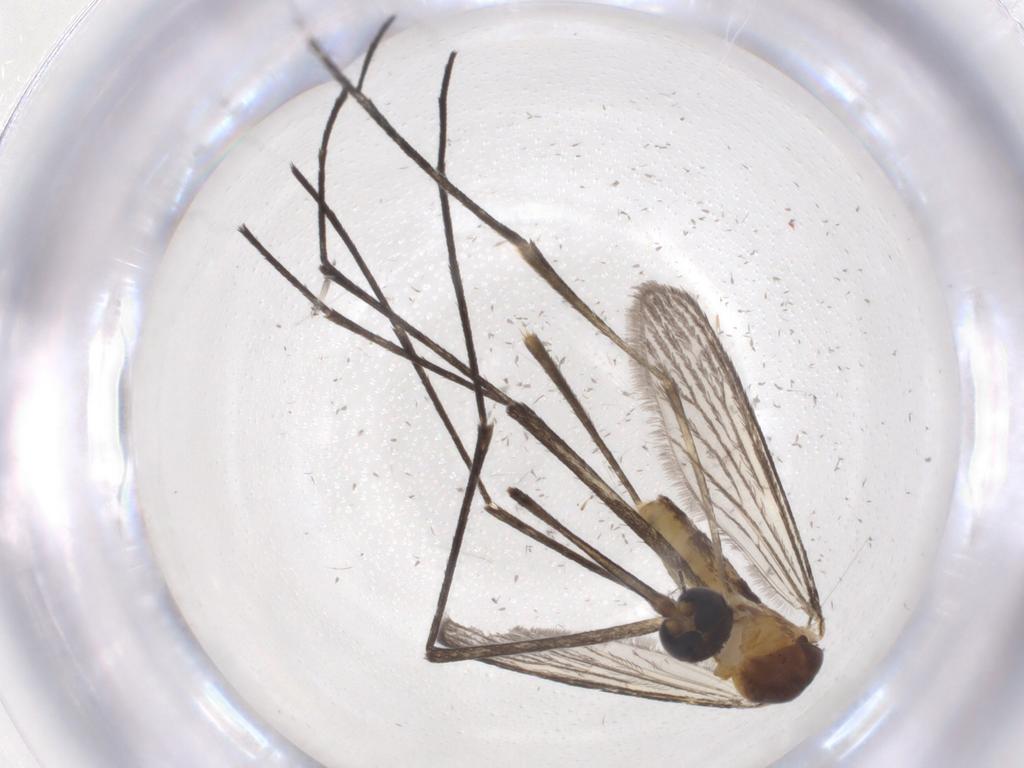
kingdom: Animalia
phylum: Arthropoda
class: Insecta
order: Diptera
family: Culicidae
